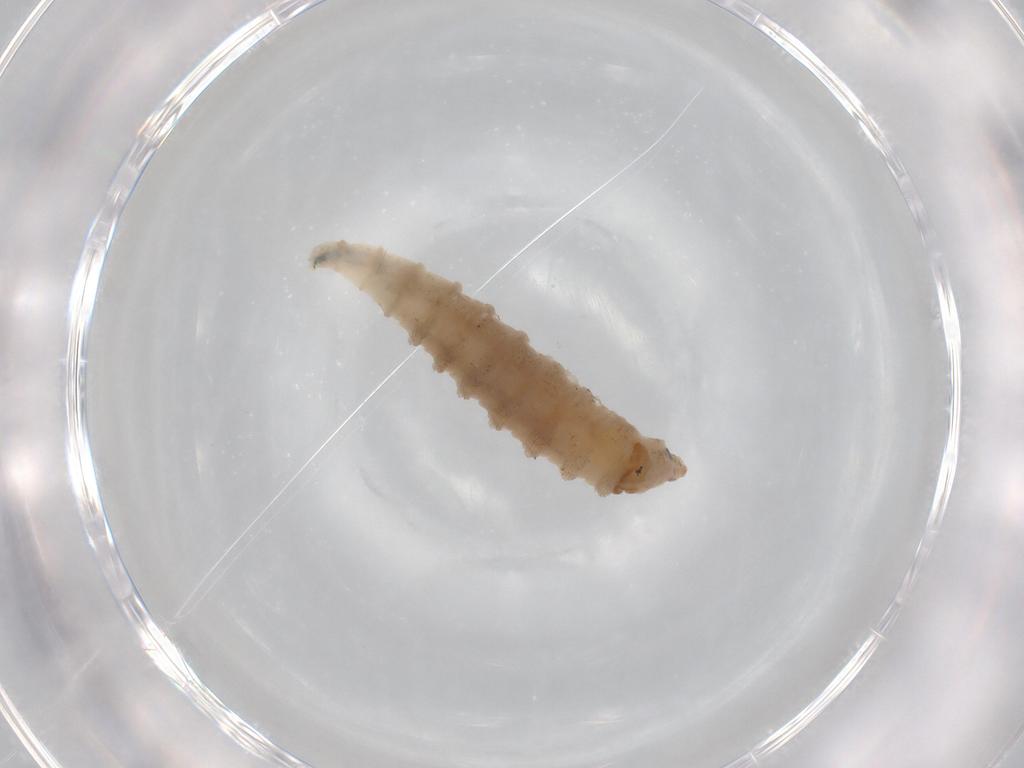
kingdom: Animalia
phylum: Arthropoda
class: Insecta
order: Diptera
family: Drosophilidae
